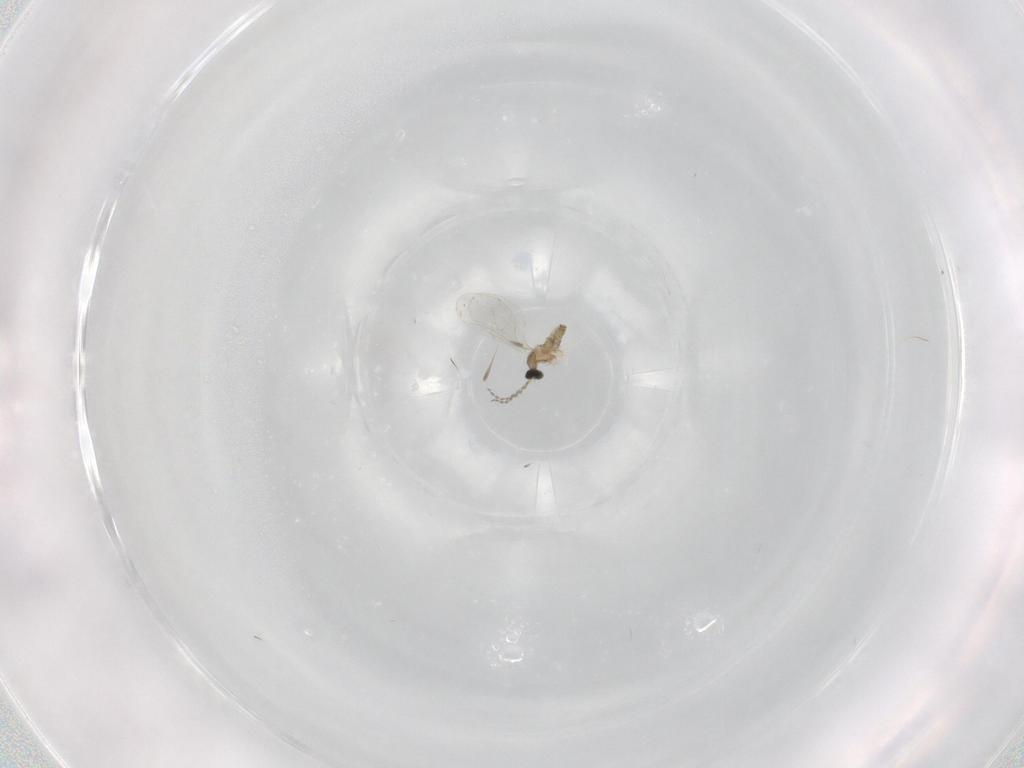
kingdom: Animalia
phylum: Arthropoda
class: Insecta
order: Diptera
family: Cecidomyiidae
